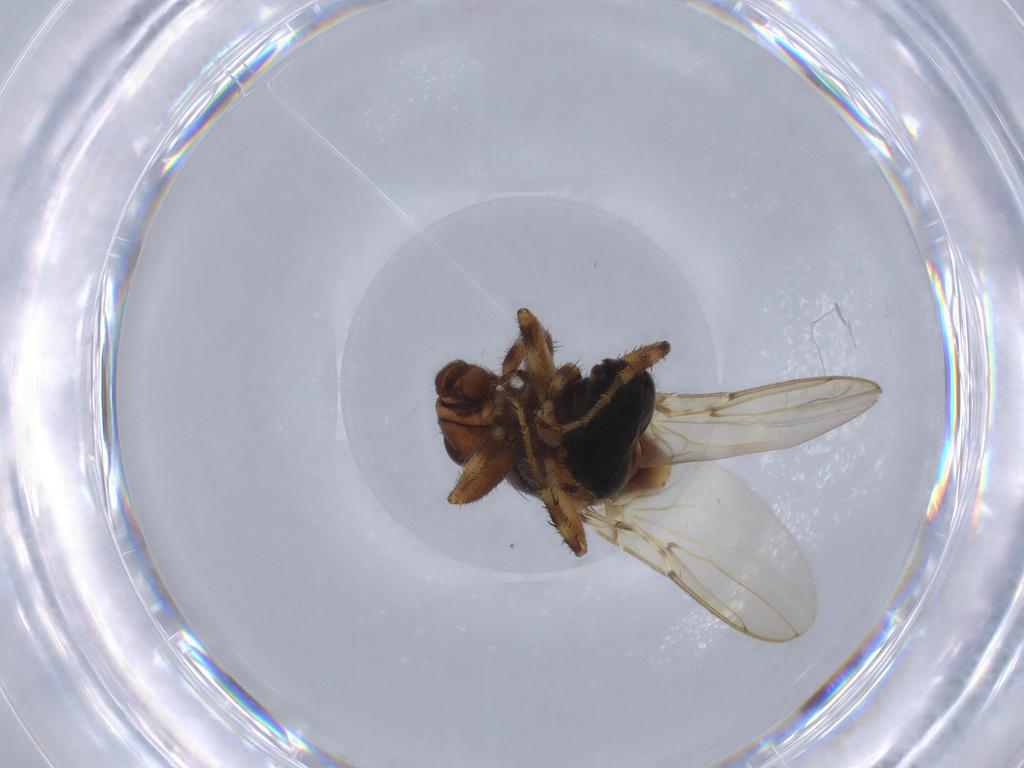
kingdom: Animalia
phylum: Arthropoda
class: Insecta
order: Diptera
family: Sphaeroceridae
